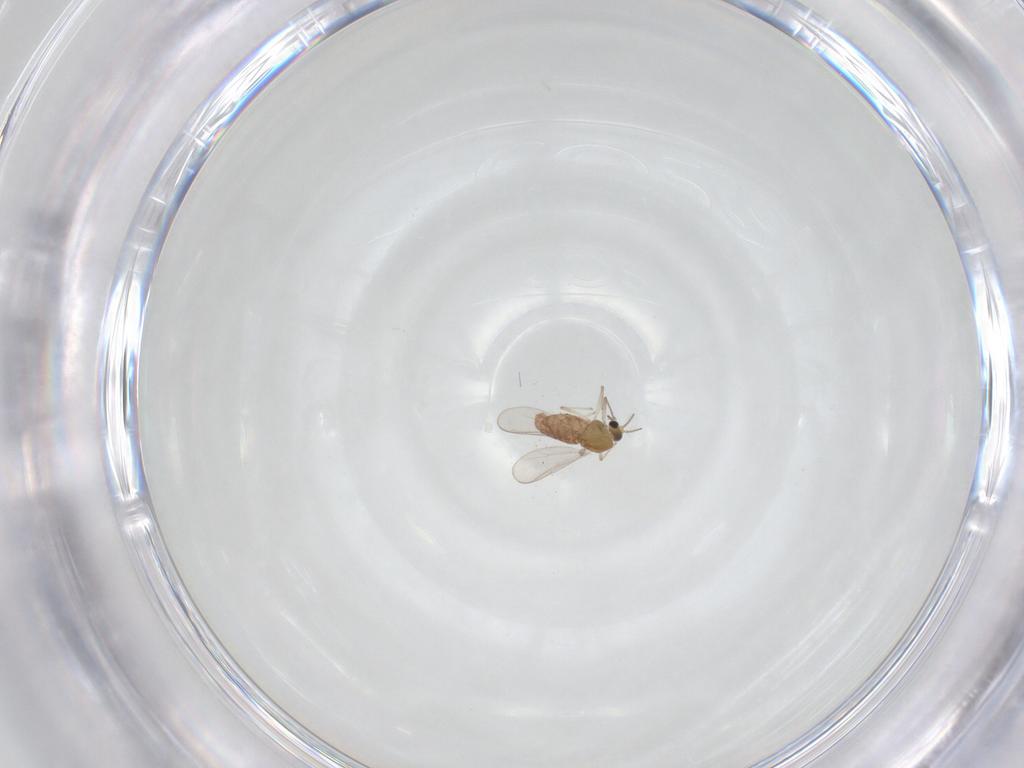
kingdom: Animalia
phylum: Arthropoda
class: Insecta
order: Diptera
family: Chironomidae
